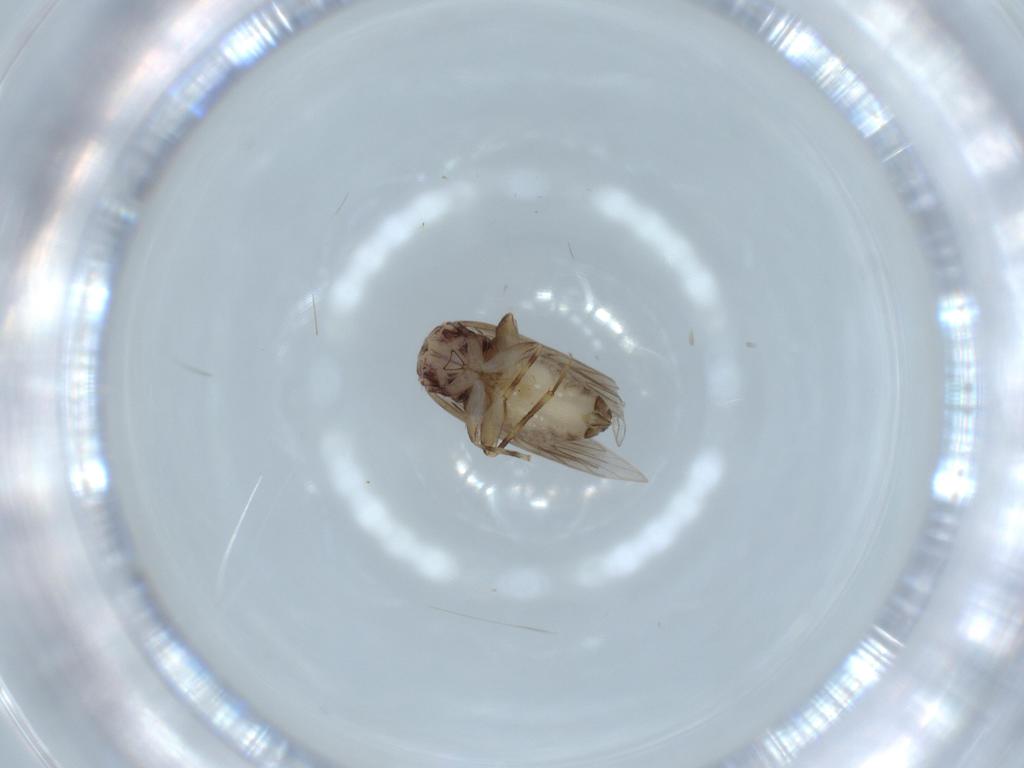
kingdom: Animalia
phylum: Arthropoda
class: Insecta
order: Psocodea
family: Lepidopsocidae
